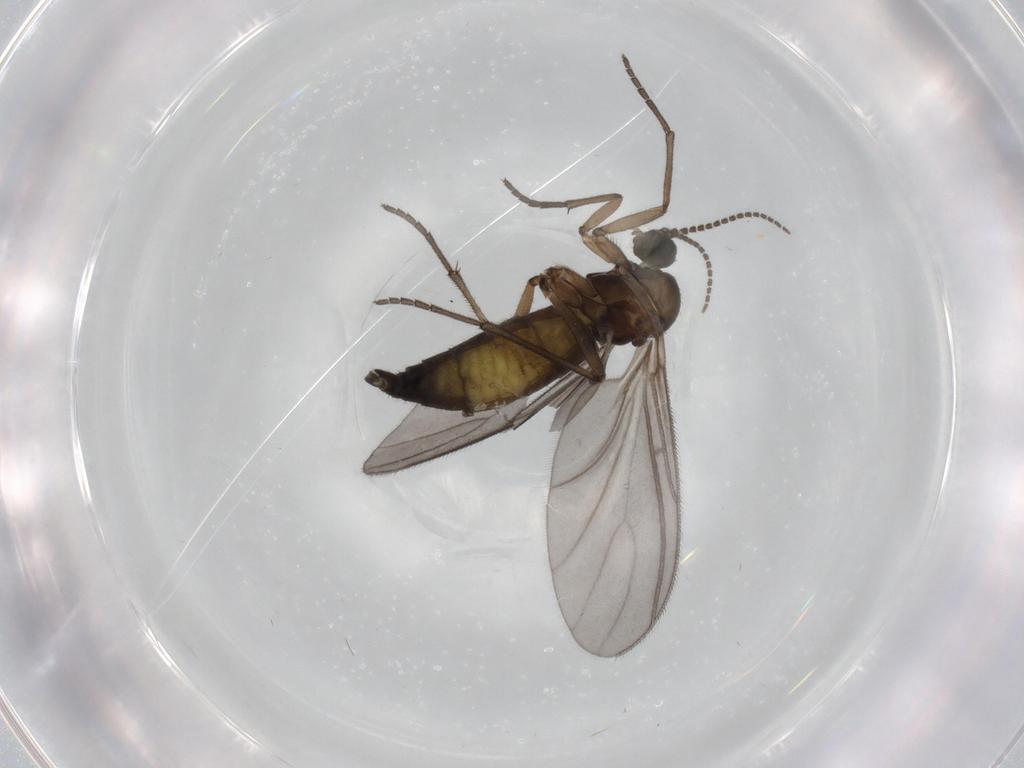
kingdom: Animalia
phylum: Arthropoda
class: Insecta
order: Diptera
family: Sciaridae
